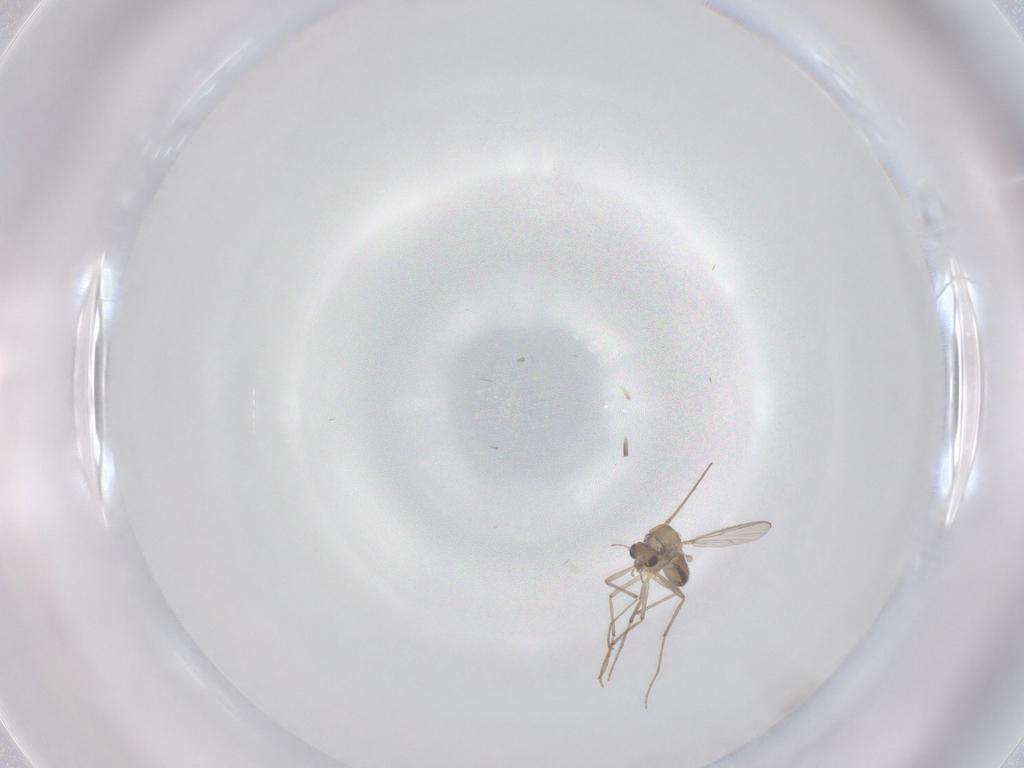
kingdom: Animalia
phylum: Arthropoda
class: Insecta
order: Diptera
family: Chironomidae
